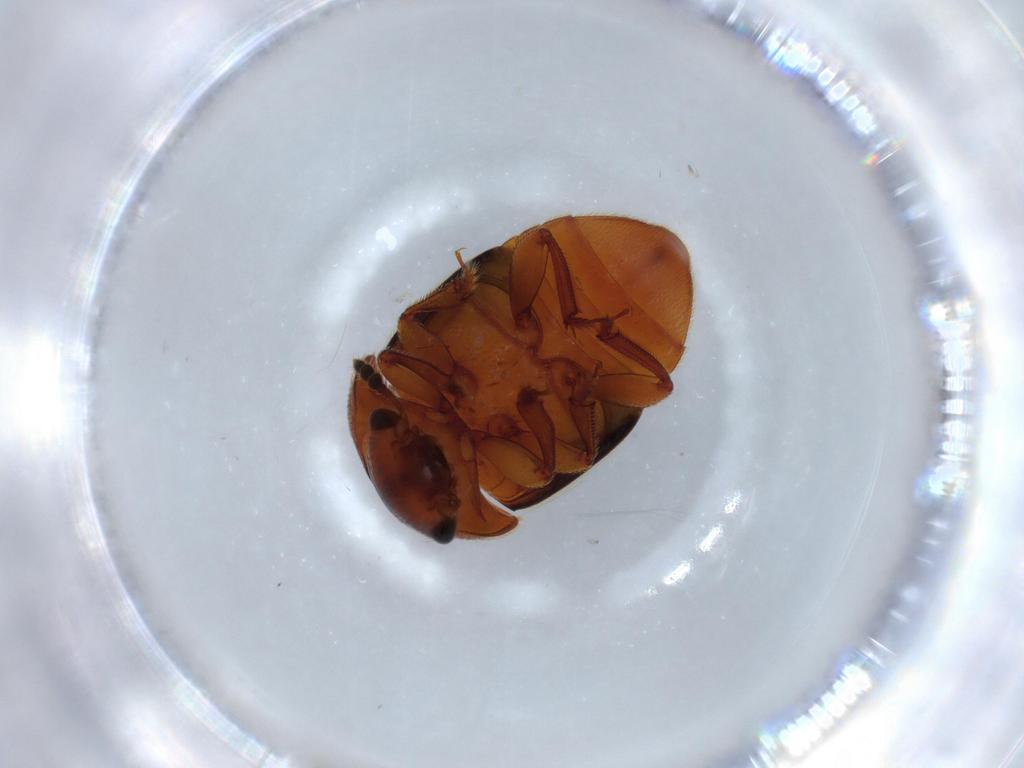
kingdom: Animalia
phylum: Arthropoda
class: Insecta
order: Coleoptera
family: Nitidulidae
